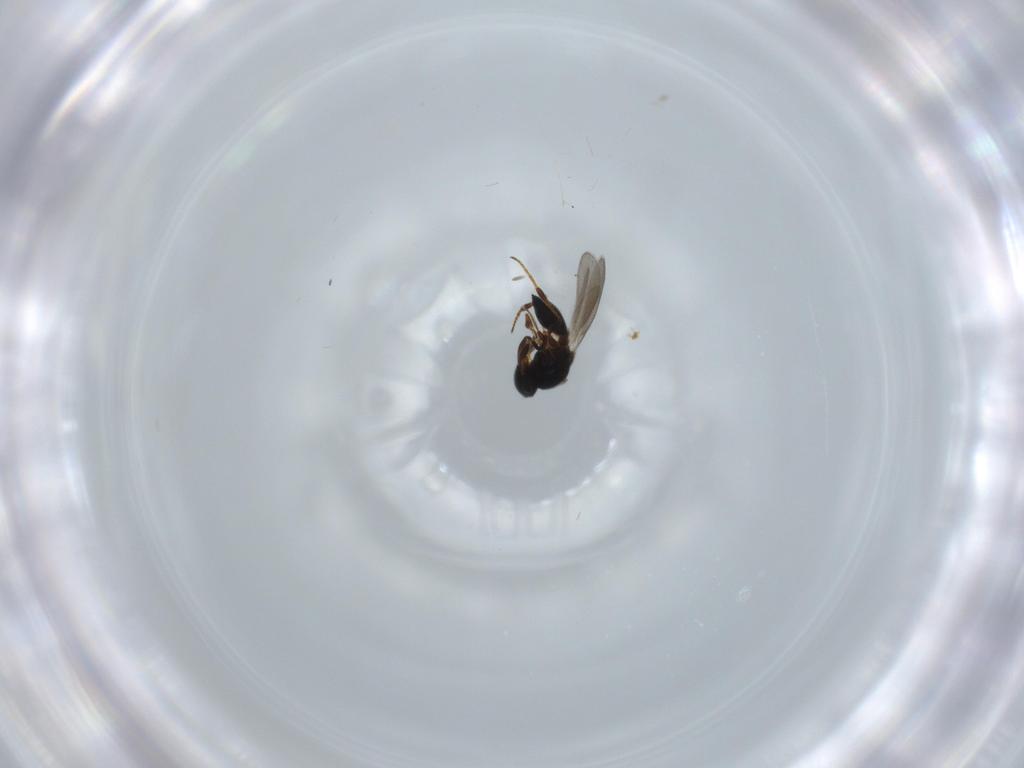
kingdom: Animalia
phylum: Arthropoda
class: Insecta
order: Hymenoptera
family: Platygastridae
